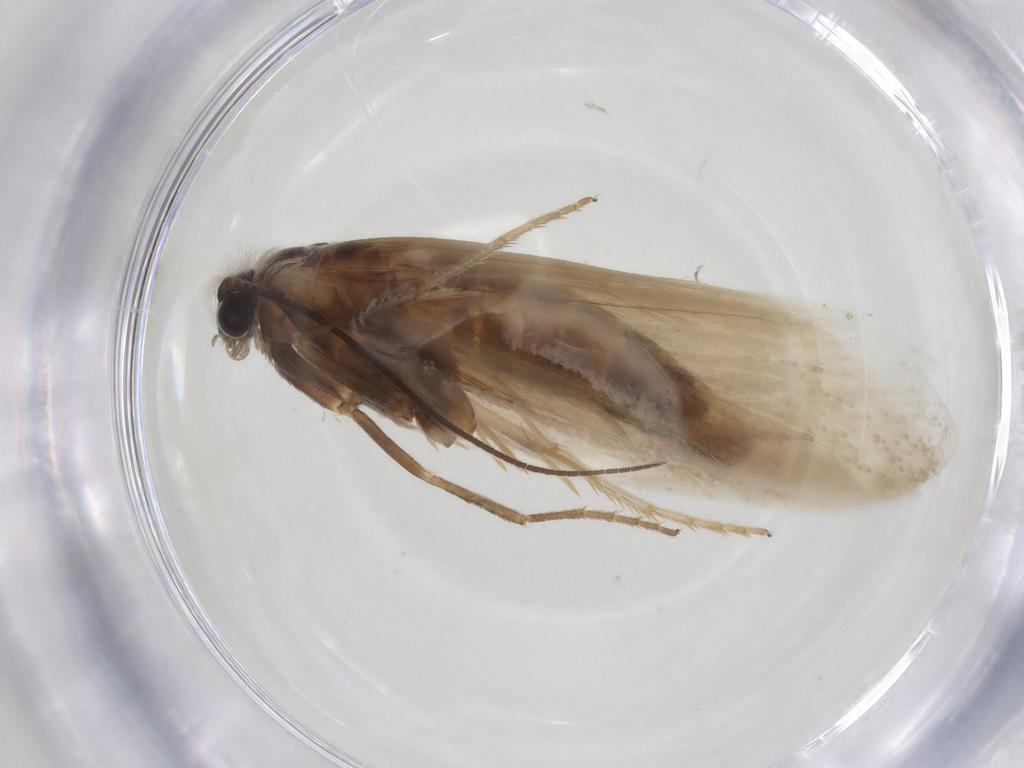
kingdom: Animalia
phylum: Arthropoda
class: Insecta
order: Lepidoptera
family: Tridentaformidae
